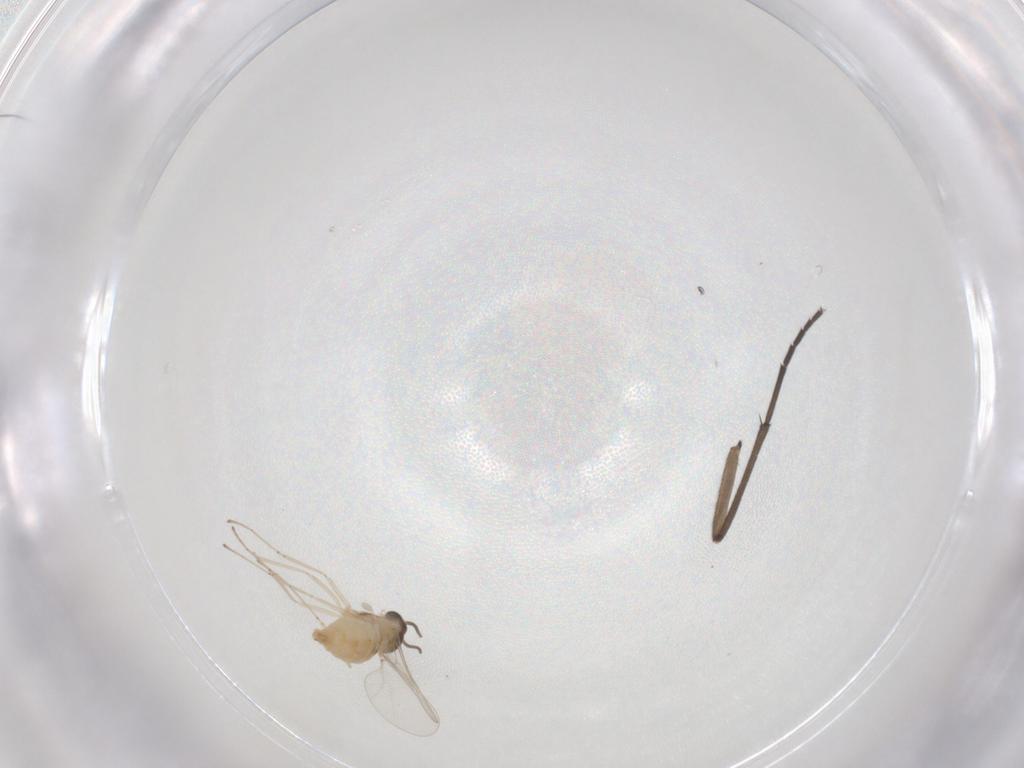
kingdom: Animalia
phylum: Arthropoda
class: Insecta
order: Diptera
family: Sciaridae
